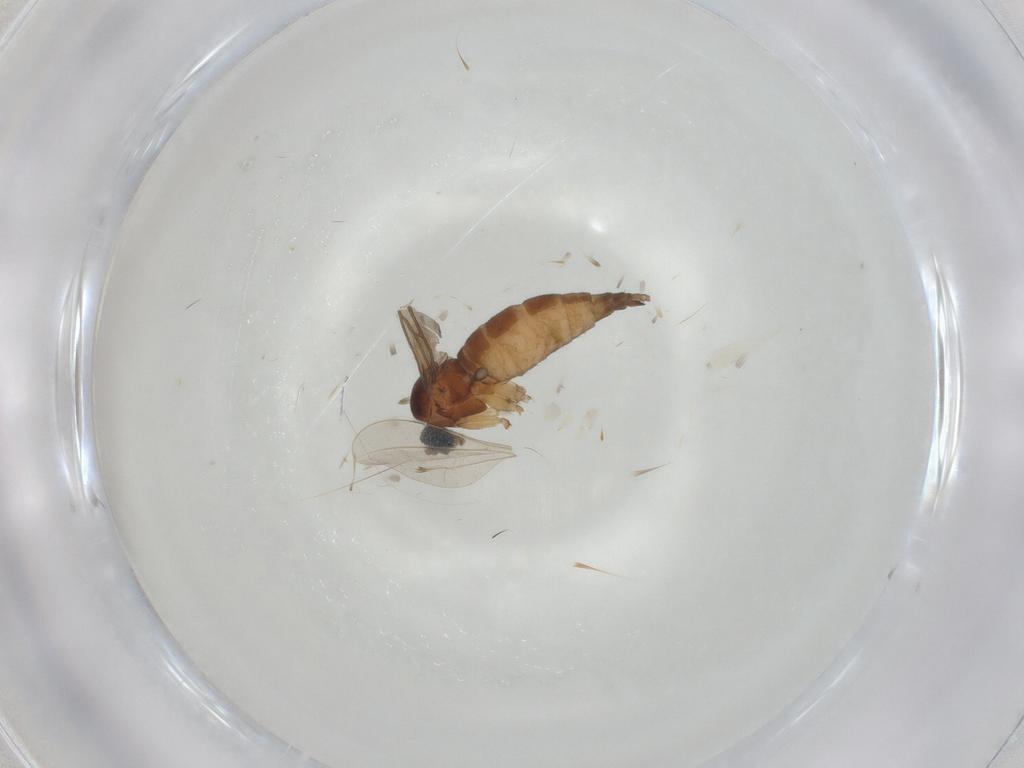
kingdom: Animalia
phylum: Arthropoda
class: Insecta
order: Diptera
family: Sciaridae
